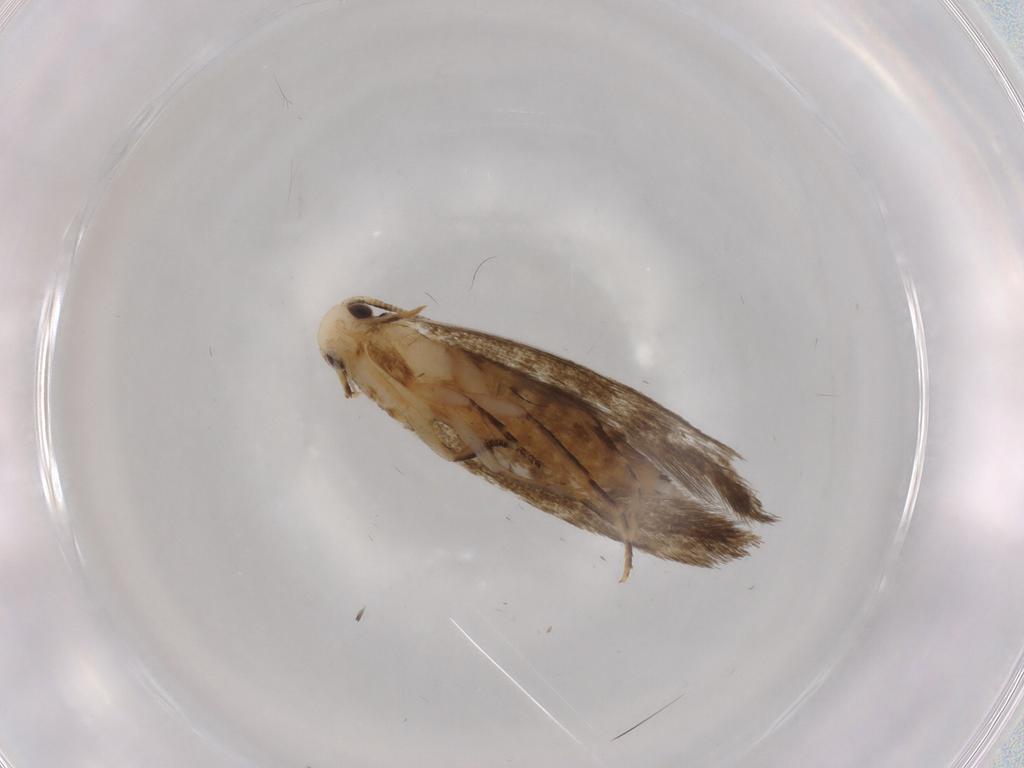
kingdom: Animalia
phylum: Arthropoda
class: Insecta
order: Lepidoptera
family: Tineidae
